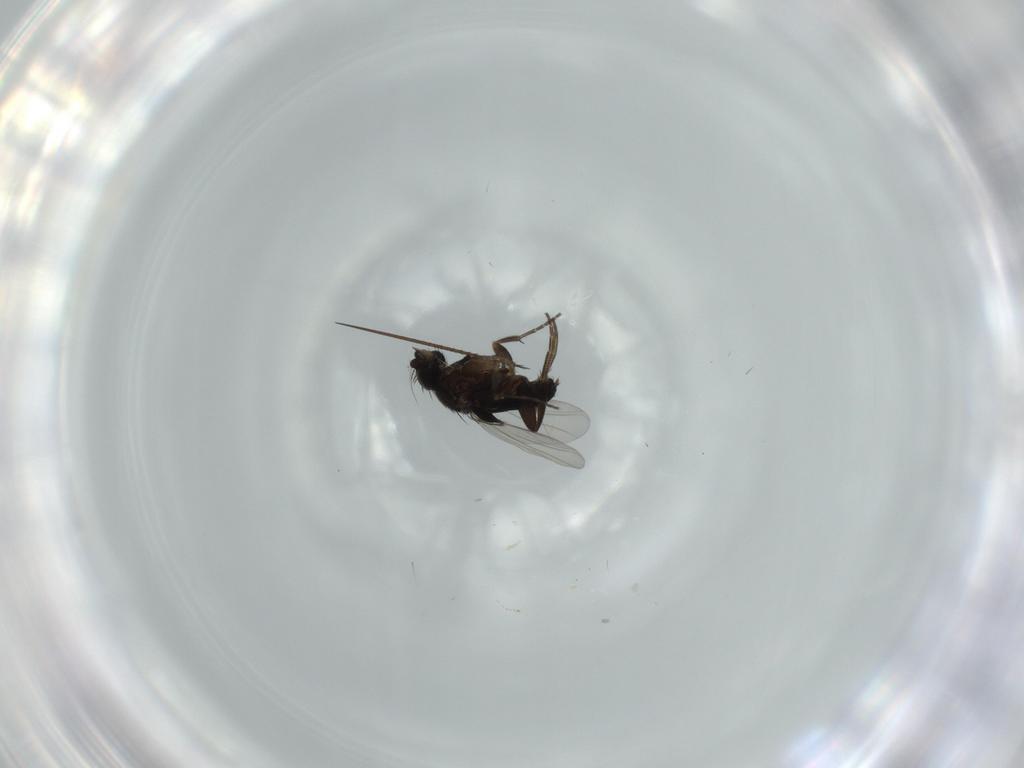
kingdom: Animalia
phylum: Arthropoda
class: Insecta
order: Diptera
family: Phoridae
